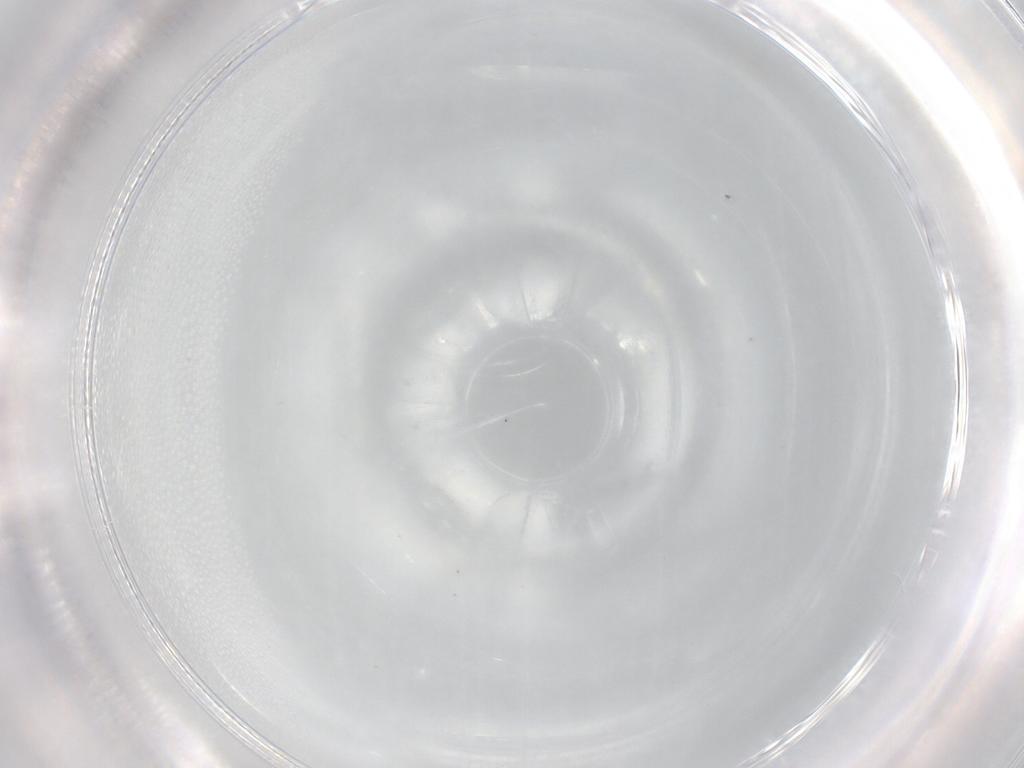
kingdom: Animalia
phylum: Arthropoda
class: Insecta
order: Diptera
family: Cecidomyiidae
